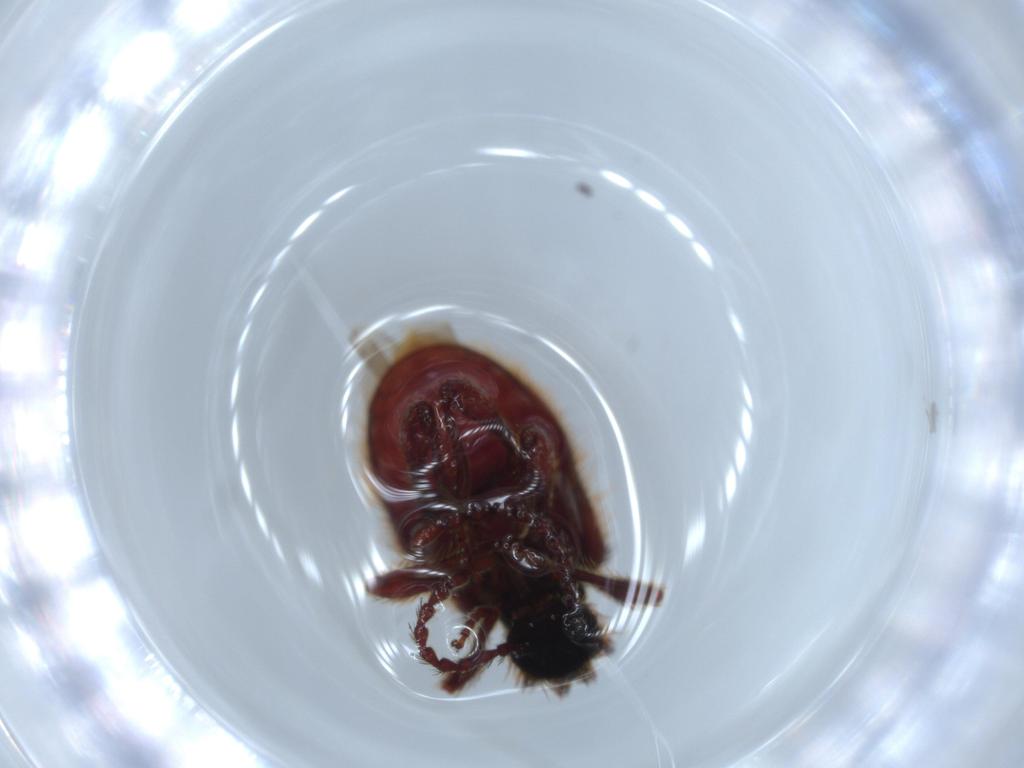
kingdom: Animalia
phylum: Arthropoda
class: Insecta
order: Coleoptera
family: Ptinidae
